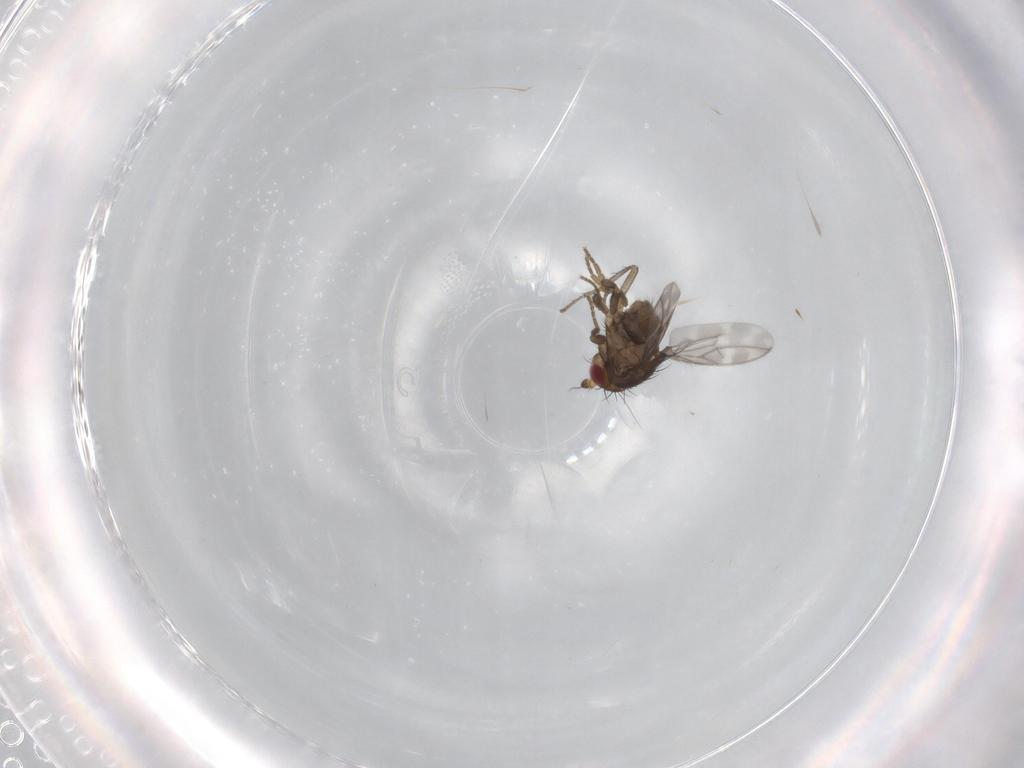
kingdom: Animalia
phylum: Arthropoda
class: Insecta
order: Diptera
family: Sphaeroceridae
